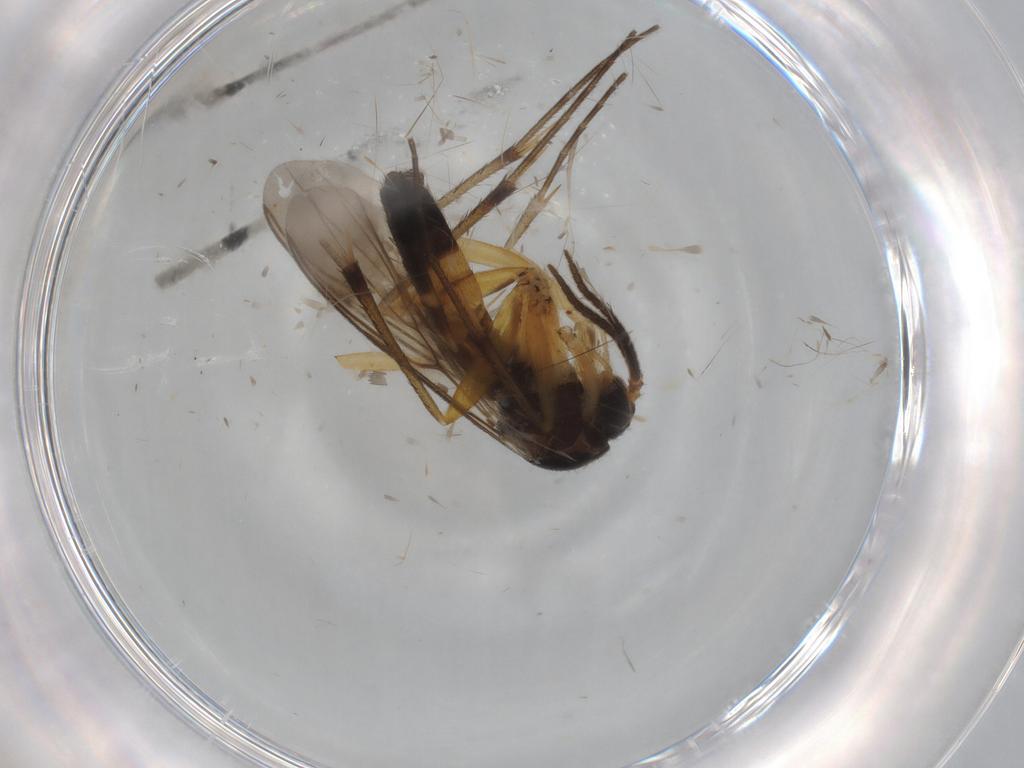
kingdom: Animalia
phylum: Arthropoda
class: Insecta
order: Diptera
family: Mycetophilidae
